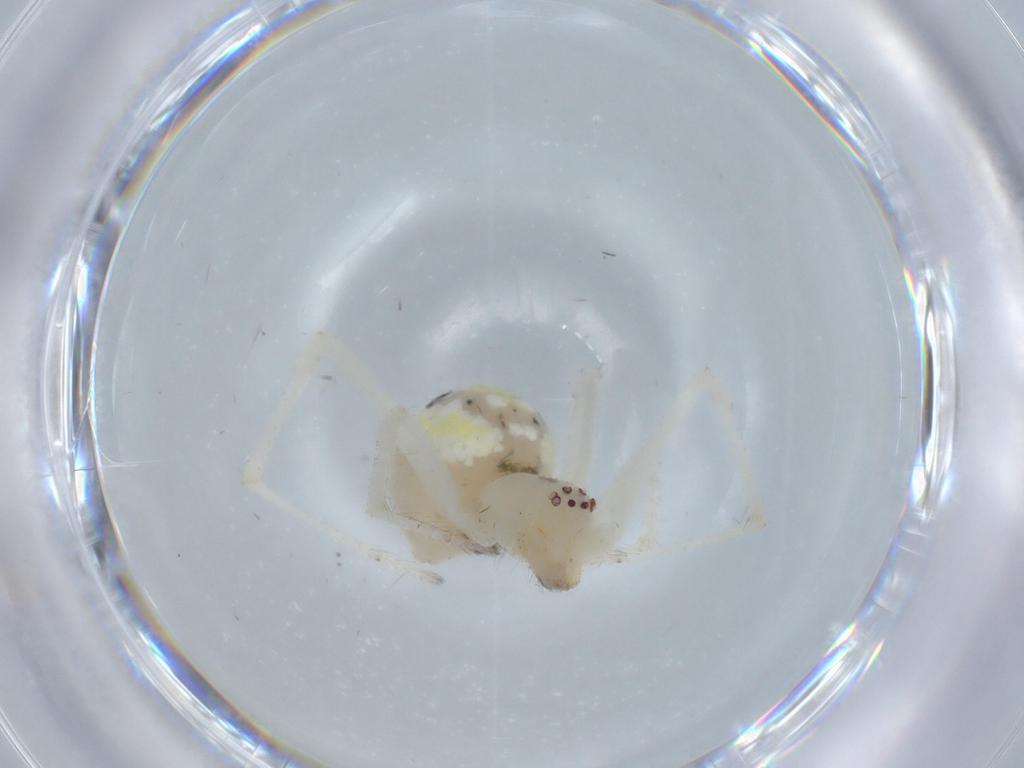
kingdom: Animalia
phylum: Arthropoda
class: Arachnida
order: Araneae
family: Theridiidae
